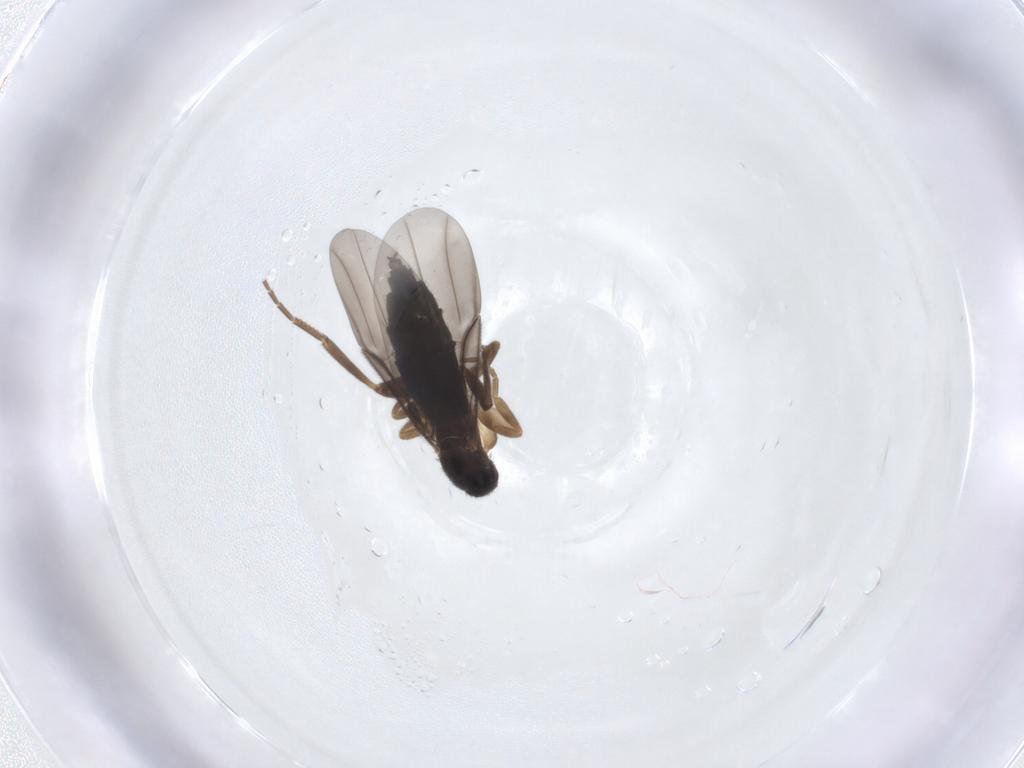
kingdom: Animalia
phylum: Arthropoda
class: Insecta
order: Diptera
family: Phoridae
